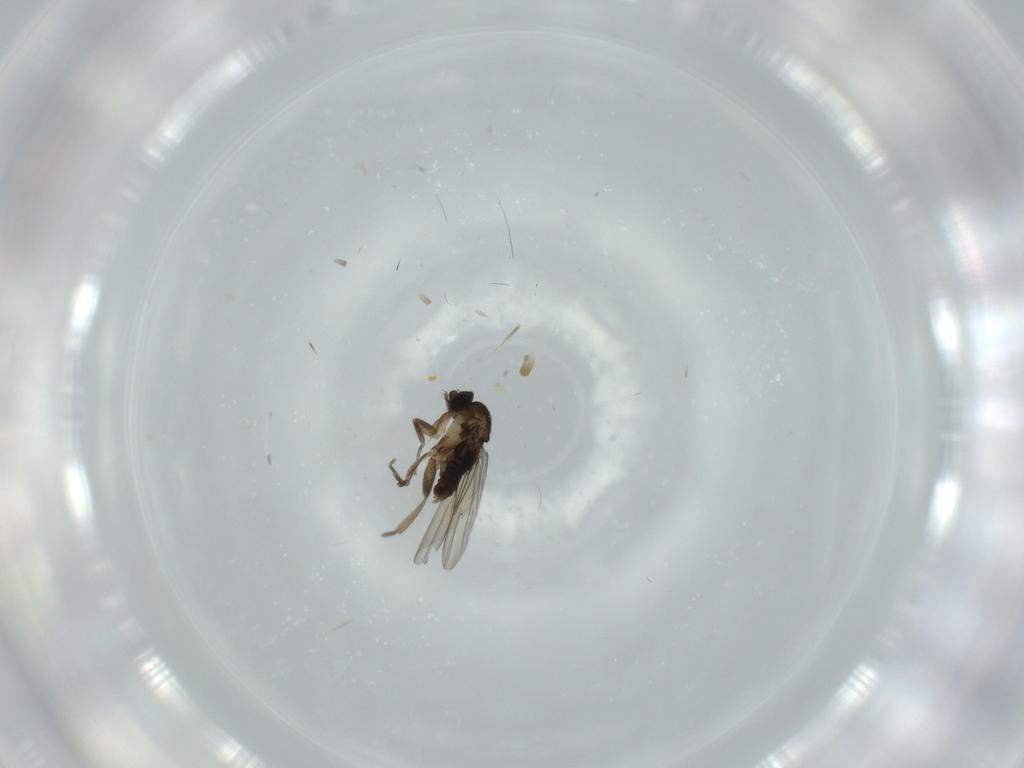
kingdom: Animalia
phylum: Arthropoda
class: Insecta
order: Diptera
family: Phoridae
